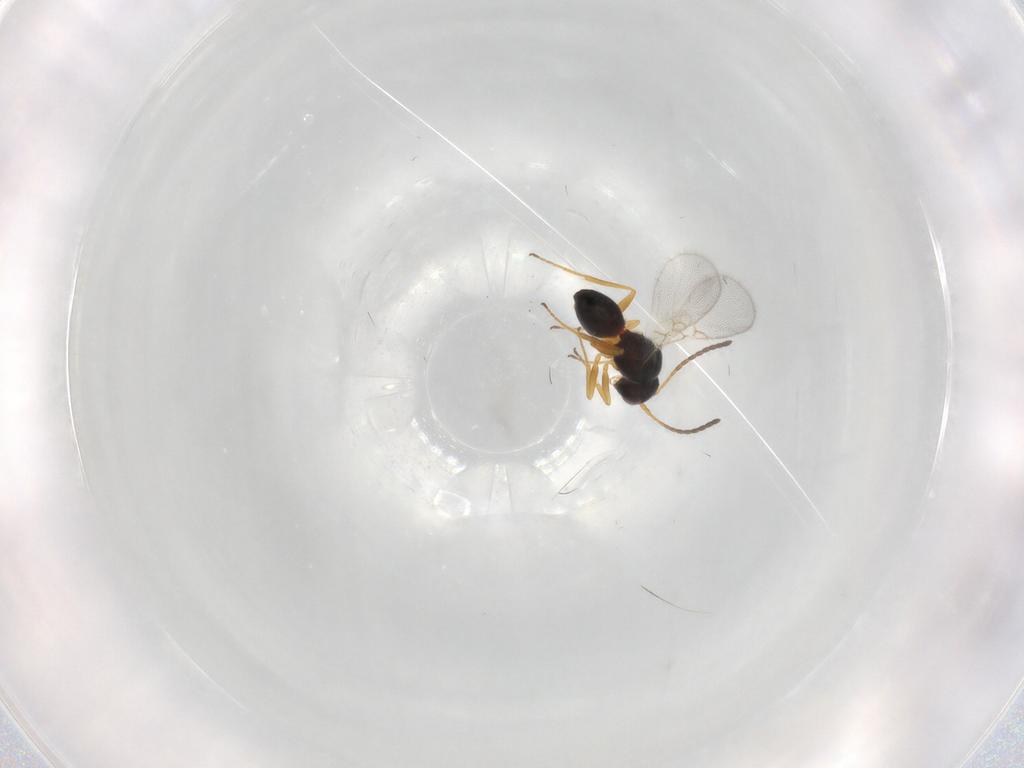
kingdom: Animalia
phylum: Arthropoda
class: Insecta
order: Hymenoptera
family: Figitidae
